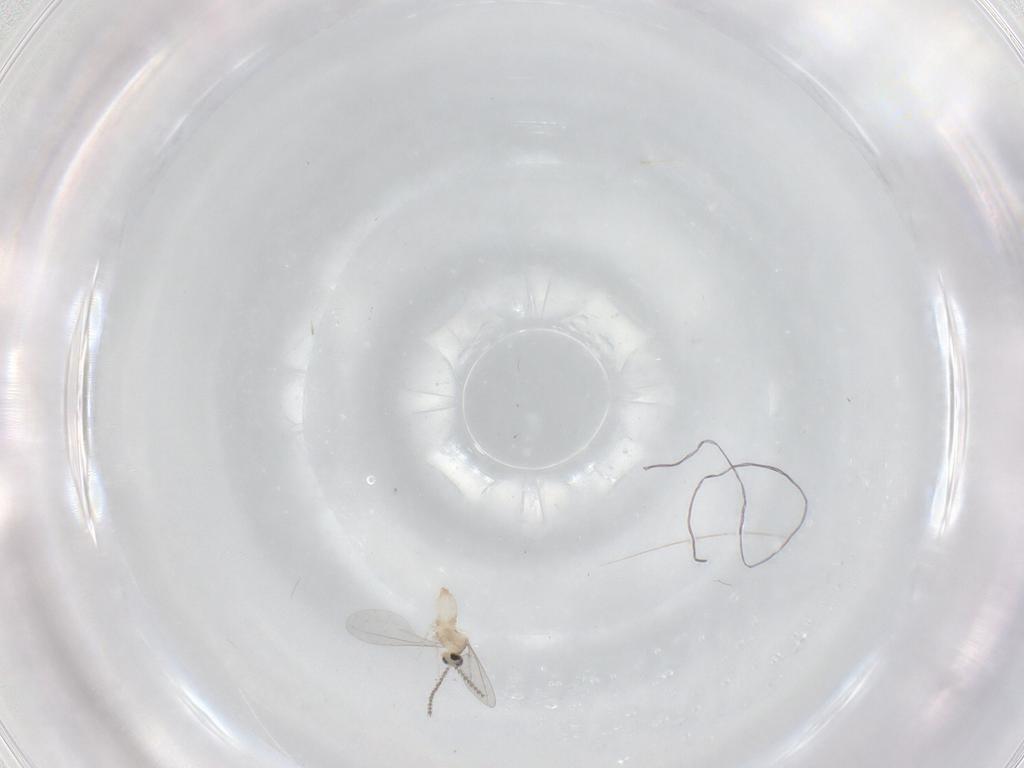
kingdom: Animalia
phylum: Arthropoda
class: Insecta
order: Diptera
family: Cecidomyiidae
